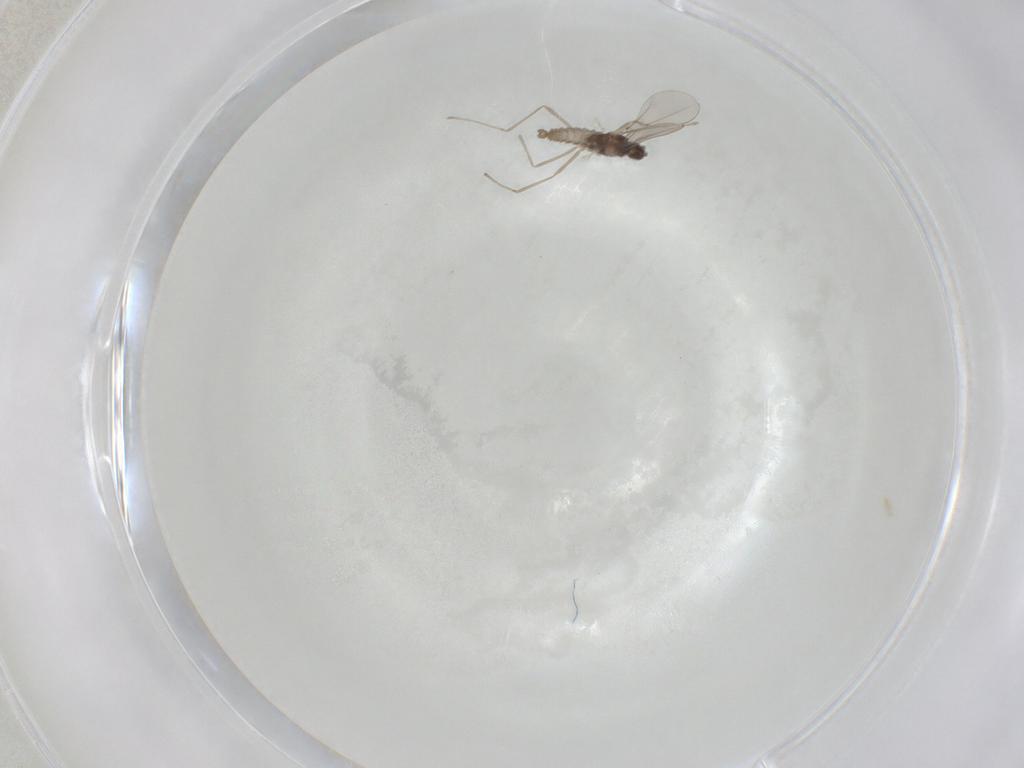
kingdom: Animalia
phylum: Arthropoda
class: Insecta
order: Diptera
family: Cecidomyiidae
